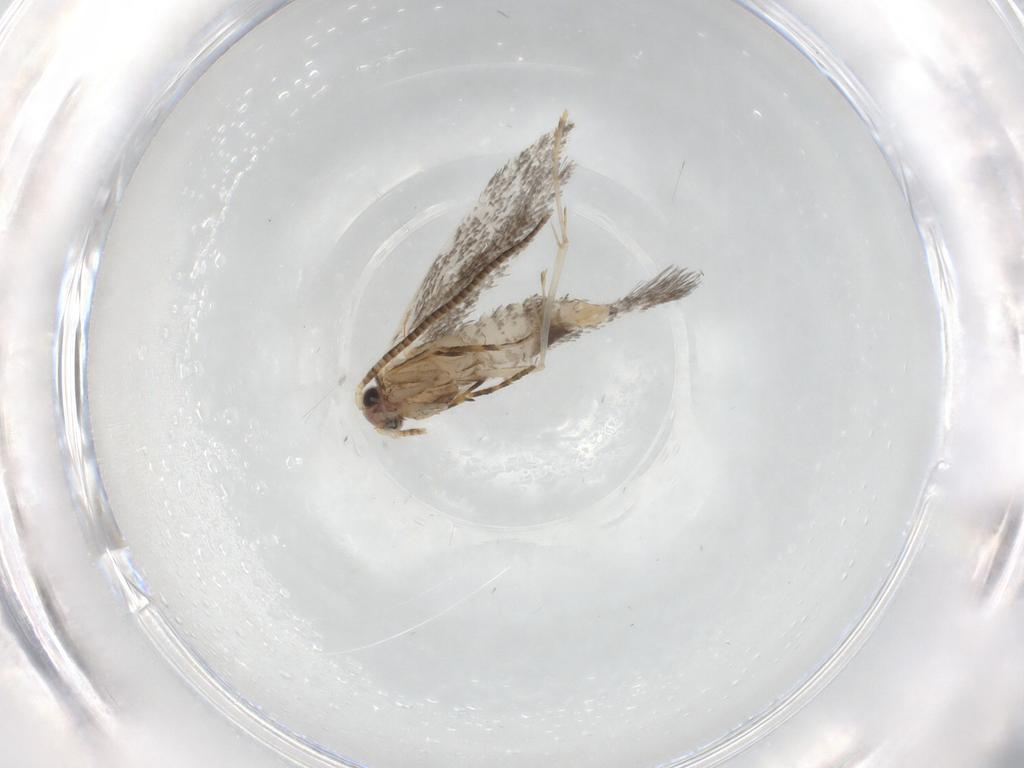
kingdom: Animalia
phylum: Arthropoda
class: Insecta
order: Lepidoptera
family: Tineidae
